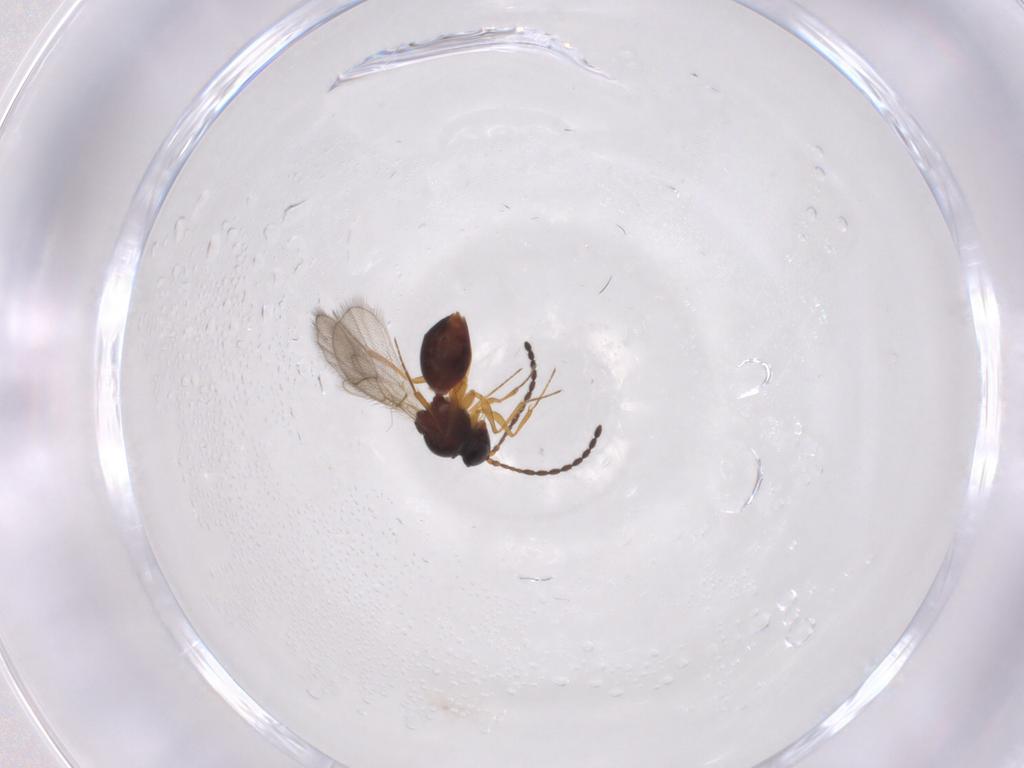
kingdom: Animalia
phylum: Arthropoda
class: Insecta
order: Hymenoptera
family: Figitidae
